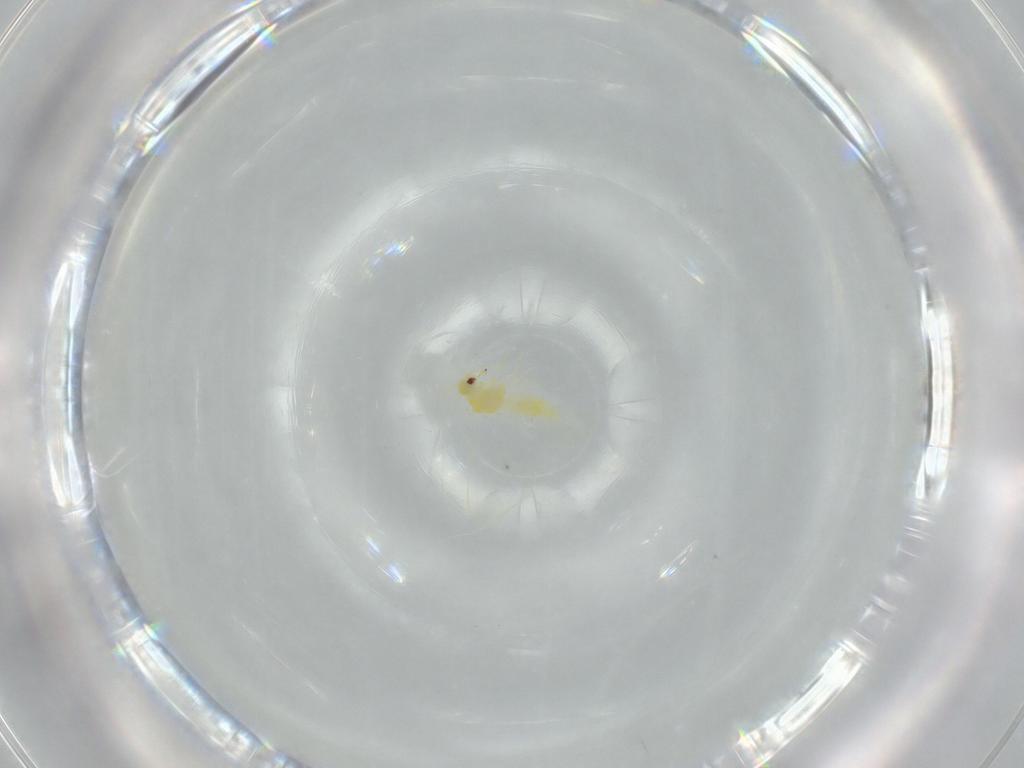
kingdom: Animalia
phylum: Arthropoda
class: Insecta
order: Hemiptera
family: Aleyrodidae
